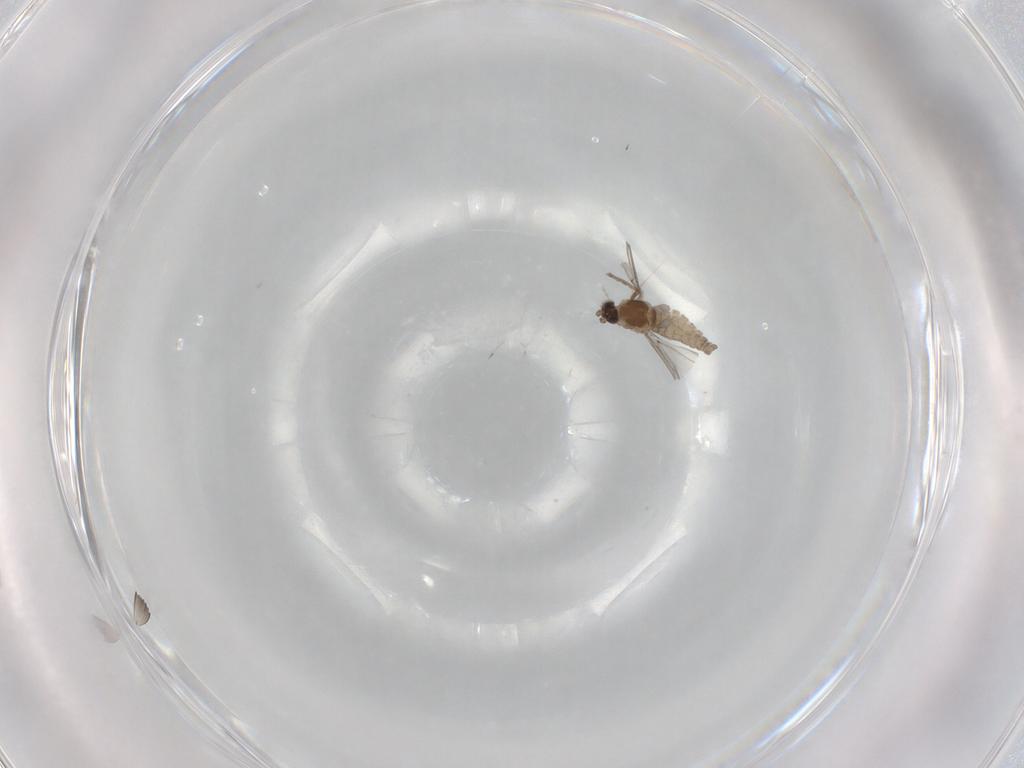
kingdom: Animalia
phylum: Arthropoda
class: Insecta
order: Diptera
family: Cecidomyiidae
